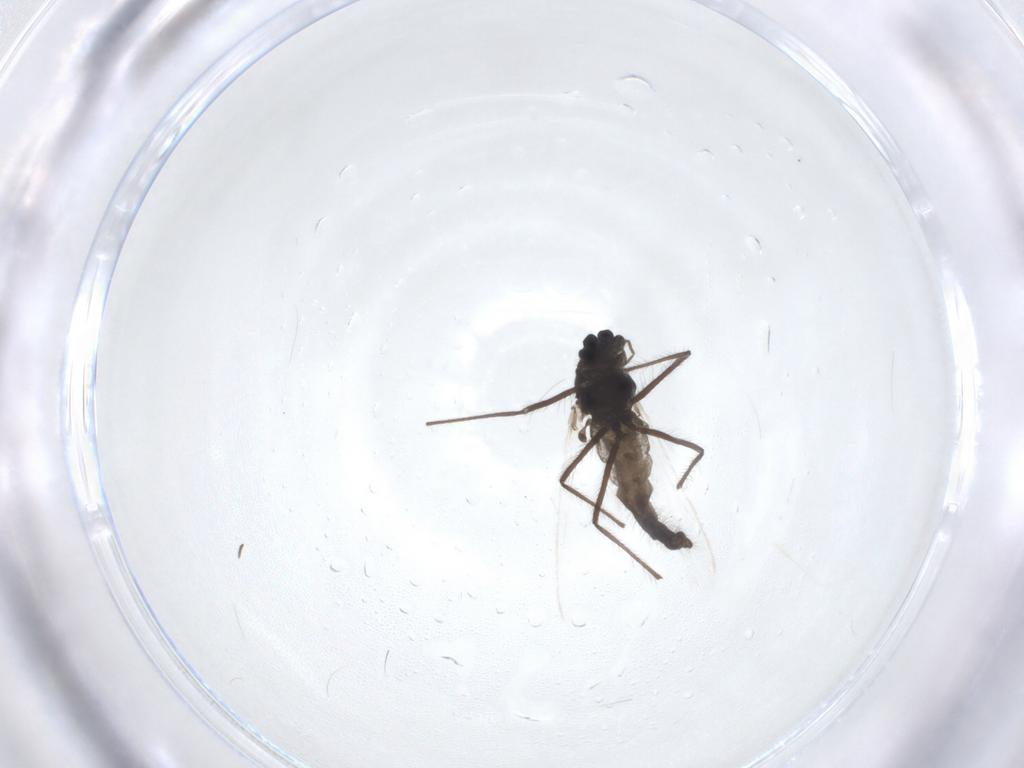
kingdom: Animalia
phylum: Arthropoda
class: Insecta
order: Diptera
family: Chironomidae
